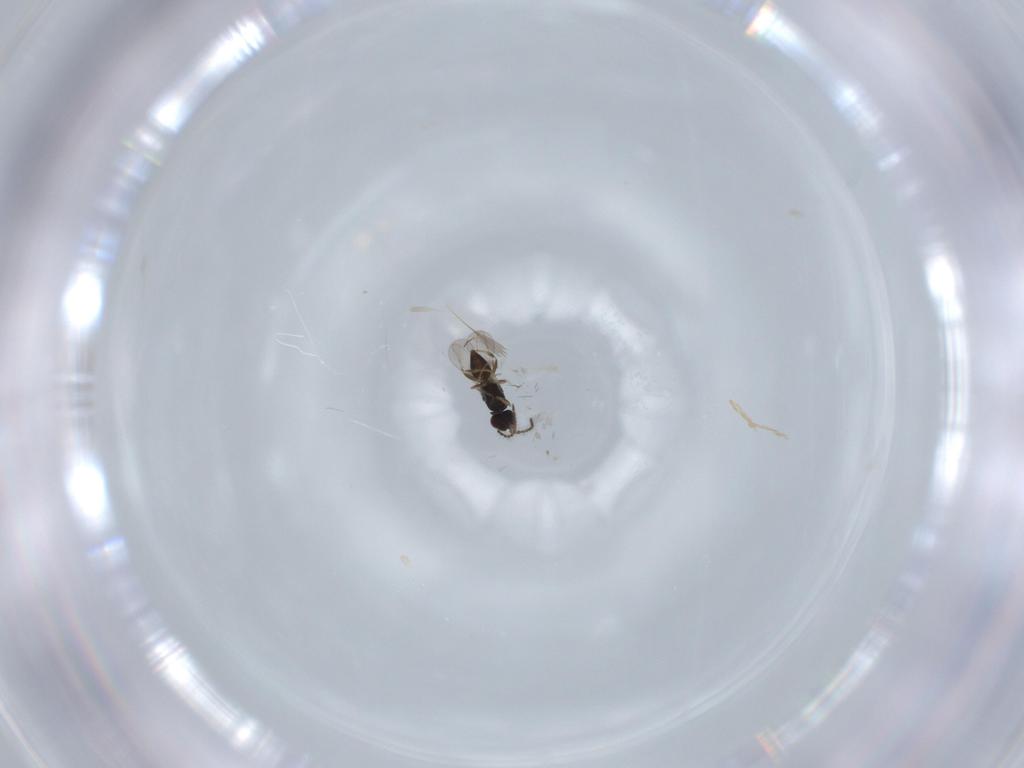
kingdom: Animalia
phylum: Arthropoda
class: Insecta
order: Hymenoptera
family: Ceraphronidae
